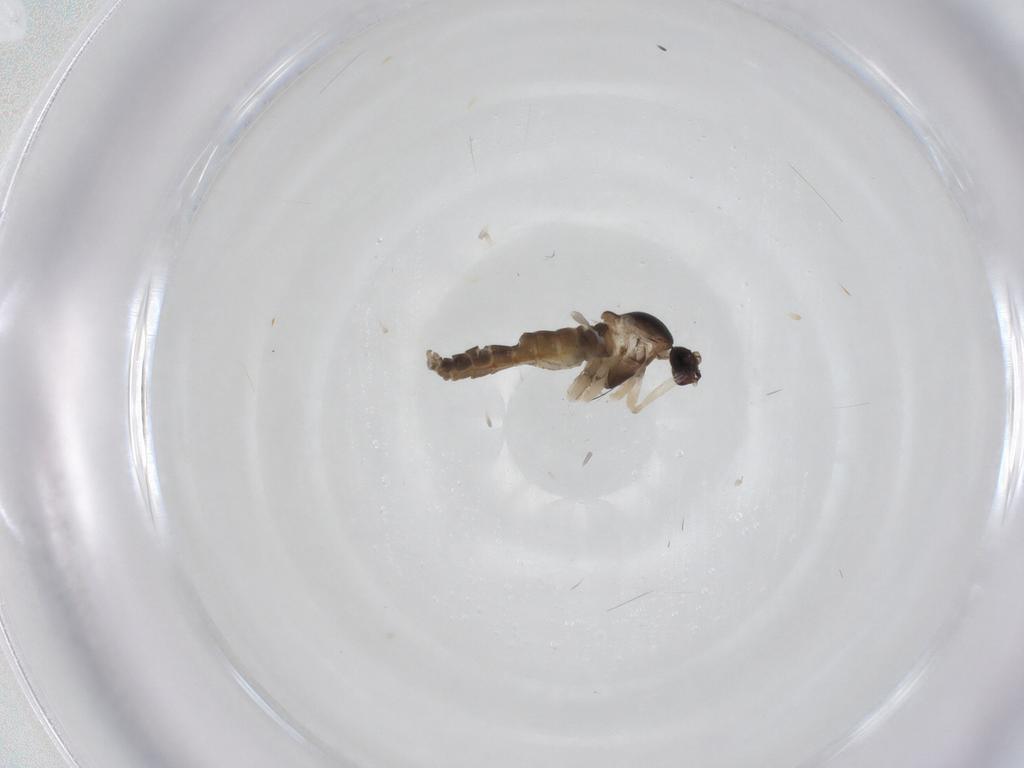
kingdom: Animalia
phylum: Arthropoda
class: Insecta
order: Diptera
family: Cecidomyiidae
